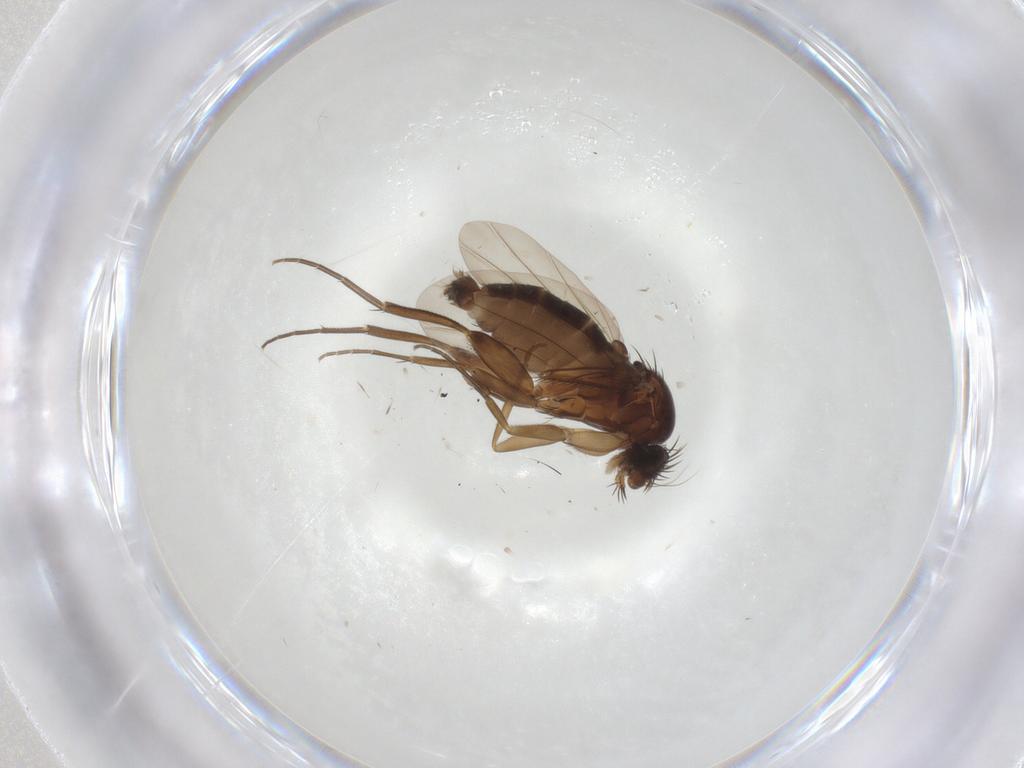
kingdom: Animalia
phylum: Arthropoda
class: Insecta
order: Diptera
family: Phoridae
